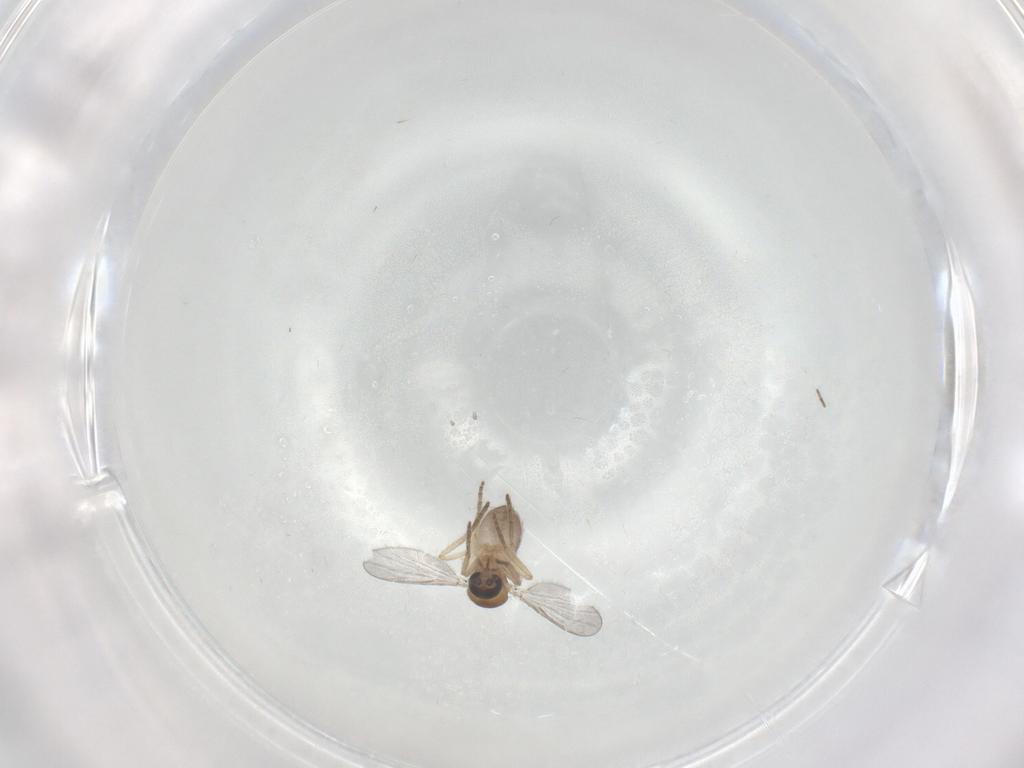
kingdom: Animalia
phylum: Arthropoda
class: Insecta
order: Diptera
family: Chironomidae
